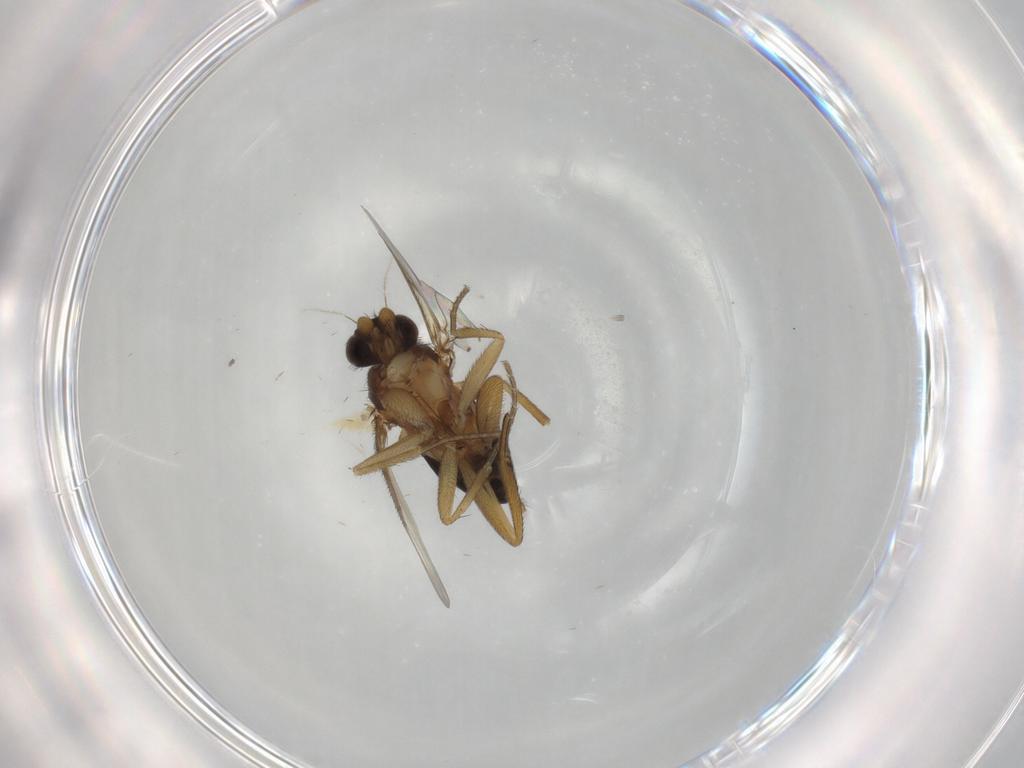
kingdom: Animalia
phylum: Arthropoda
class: Insecta
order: Diptera
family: Phoridae
